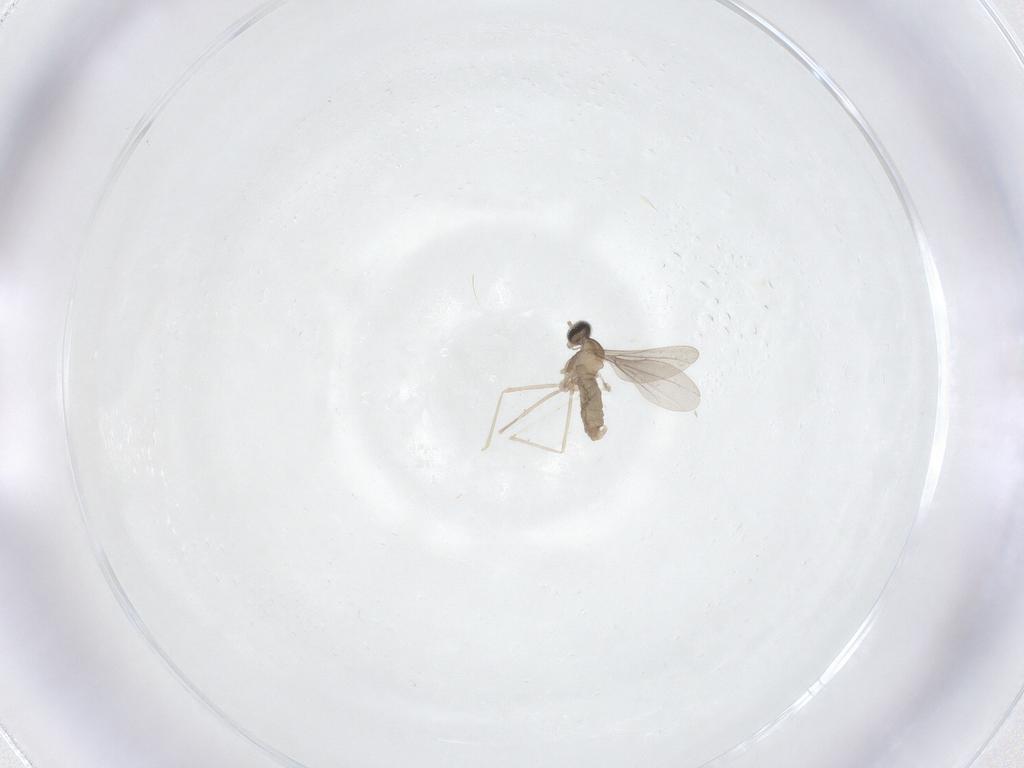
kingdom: Animalia
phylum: Arthropoda
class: Insecta
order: Diptera
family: Cecidomyiidae
